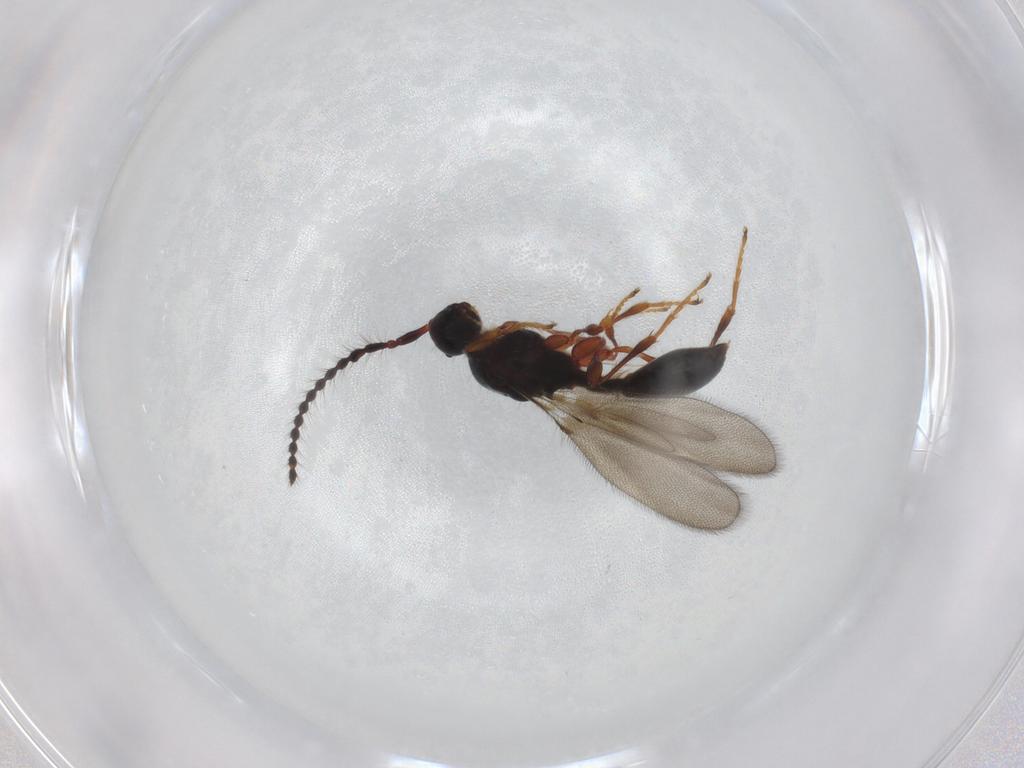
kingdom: Animalia
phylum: Arthropoda
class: Insecta
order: Hymenoptera
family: Diapriidae
